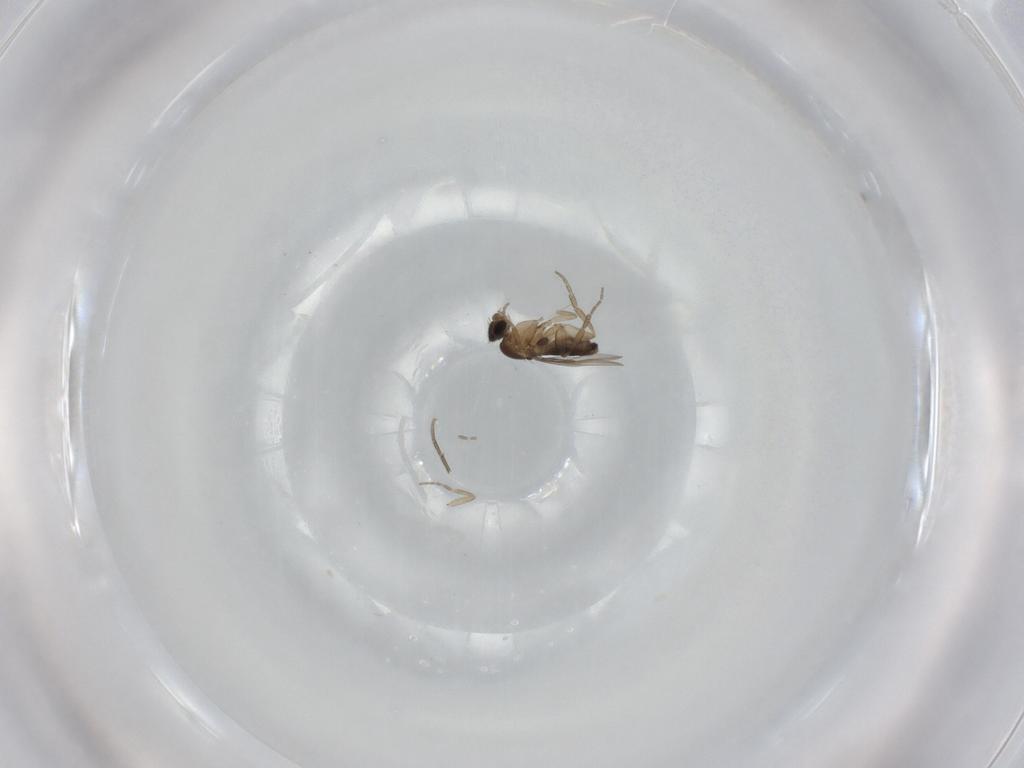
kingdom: Animalia
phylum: Arthropoda
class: Insecta
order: Diptera
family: Phoridae
